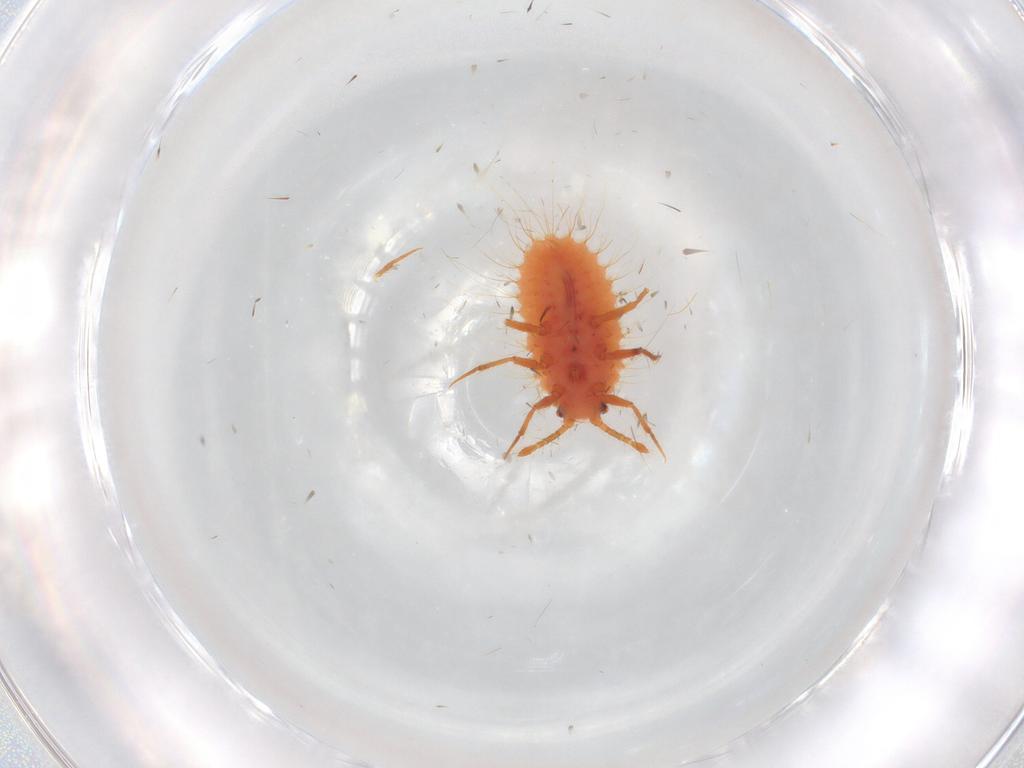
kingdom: Animalia
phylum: Arthropoda
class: Insecta
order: Hemiptera
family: Coccoidea_incertae_sedis
